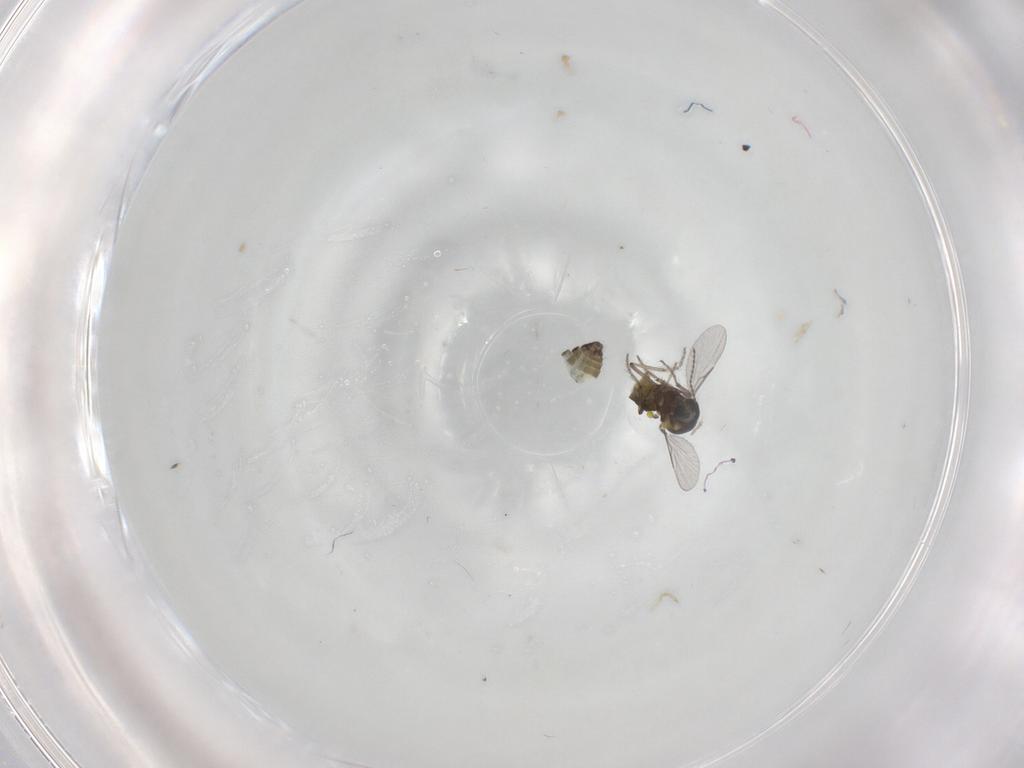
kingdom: Animalia
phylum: Arthropoda
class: Insecta
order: Diptera
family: Ceratopogonidae
